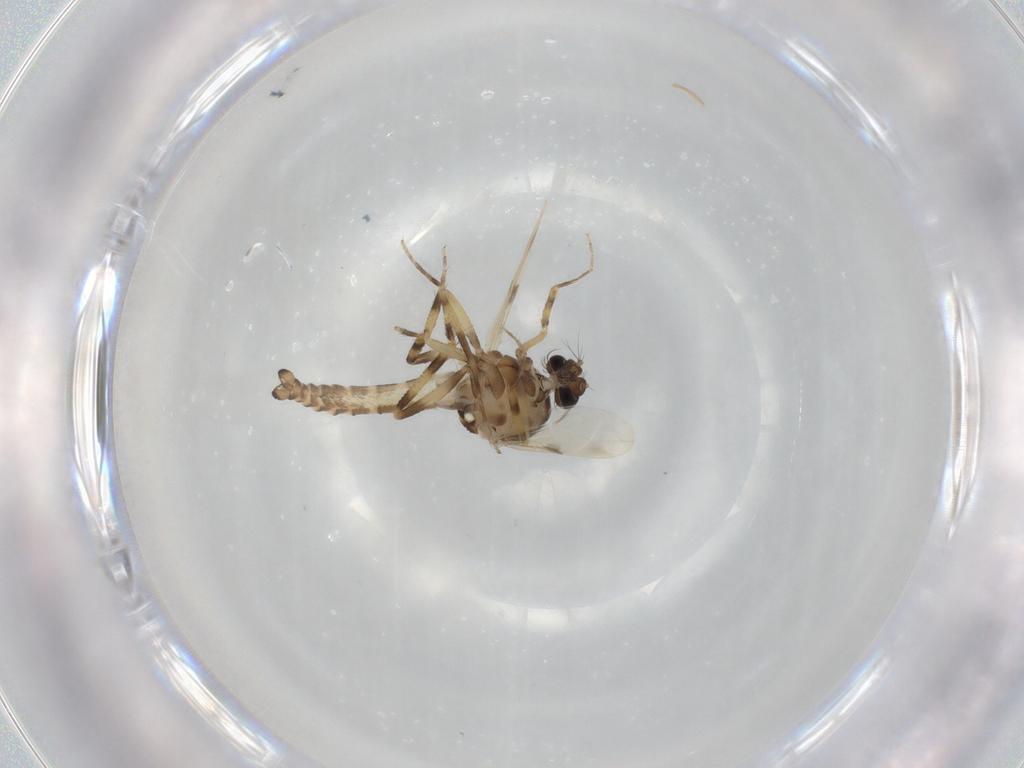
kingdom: Animalia
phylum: Arthropoda
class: Insecta
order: Diptera
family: Ceratopogonidae
